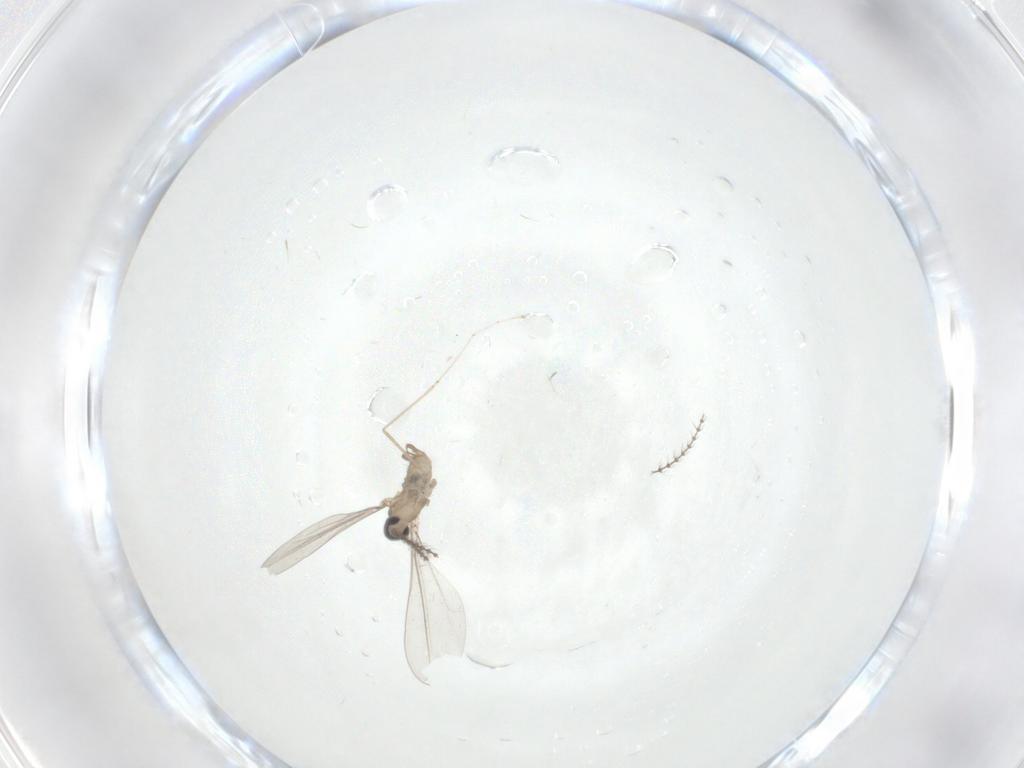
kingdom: Animalia
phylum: Arthropoda
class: Insecta
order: Diptera
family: Cecidomyiidae
